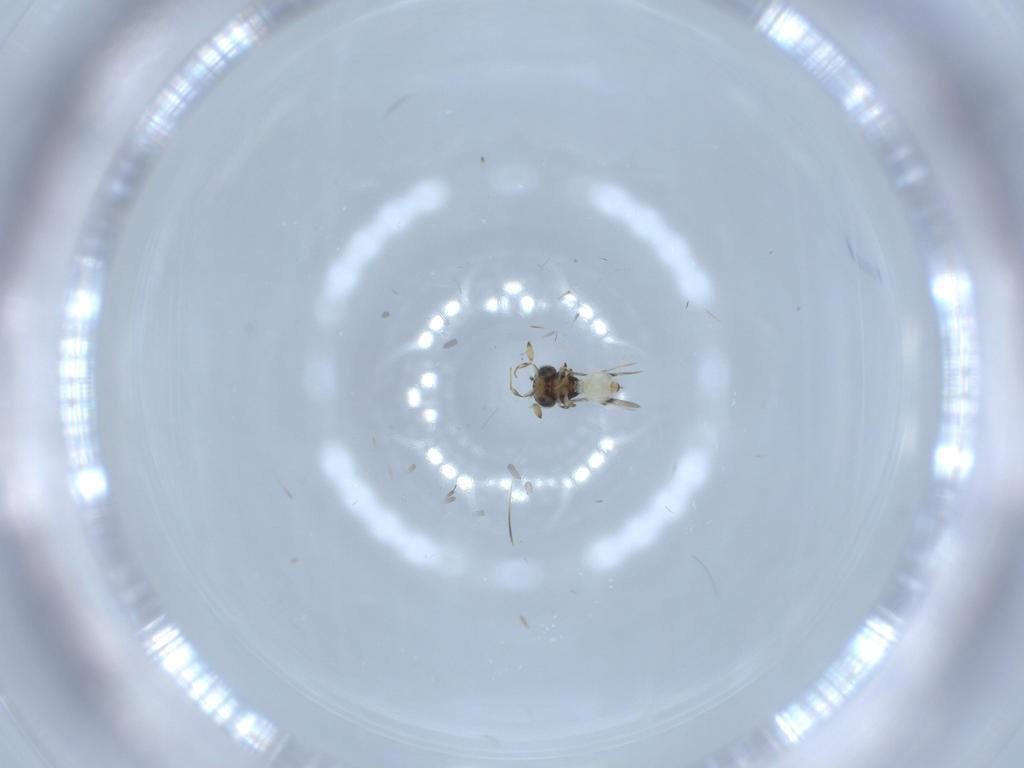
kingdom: Animalia
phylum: Arthropoda
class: Insecta
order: Hymenoptera
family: Scelionidae
